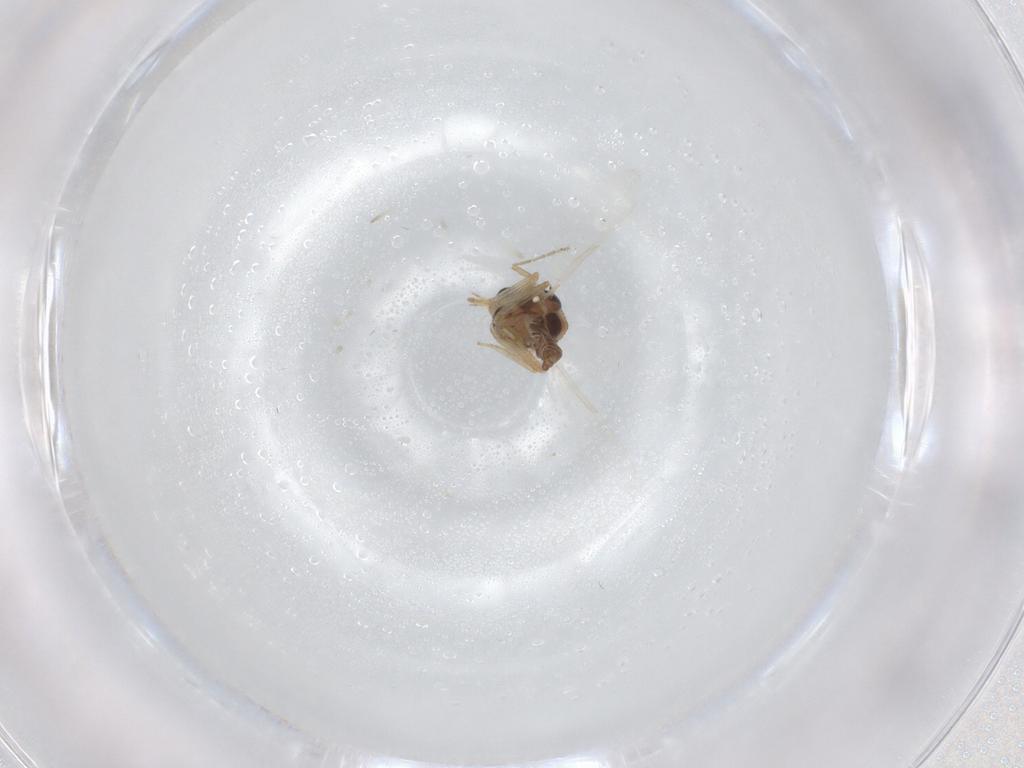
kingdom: Animalia
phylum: Arthropoda
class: Insecta
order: Diptera
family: Ceratopogonidae
